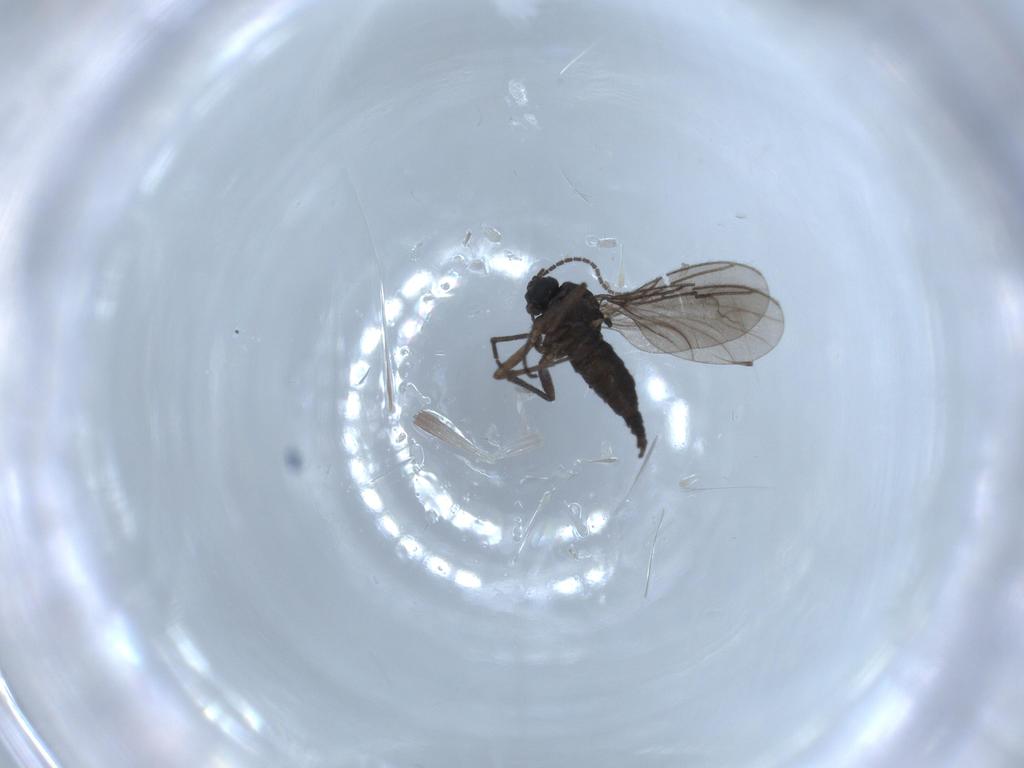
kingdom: Animalia
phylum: Arthropoda
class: Insecta
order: Diptera
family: Sciaridae
